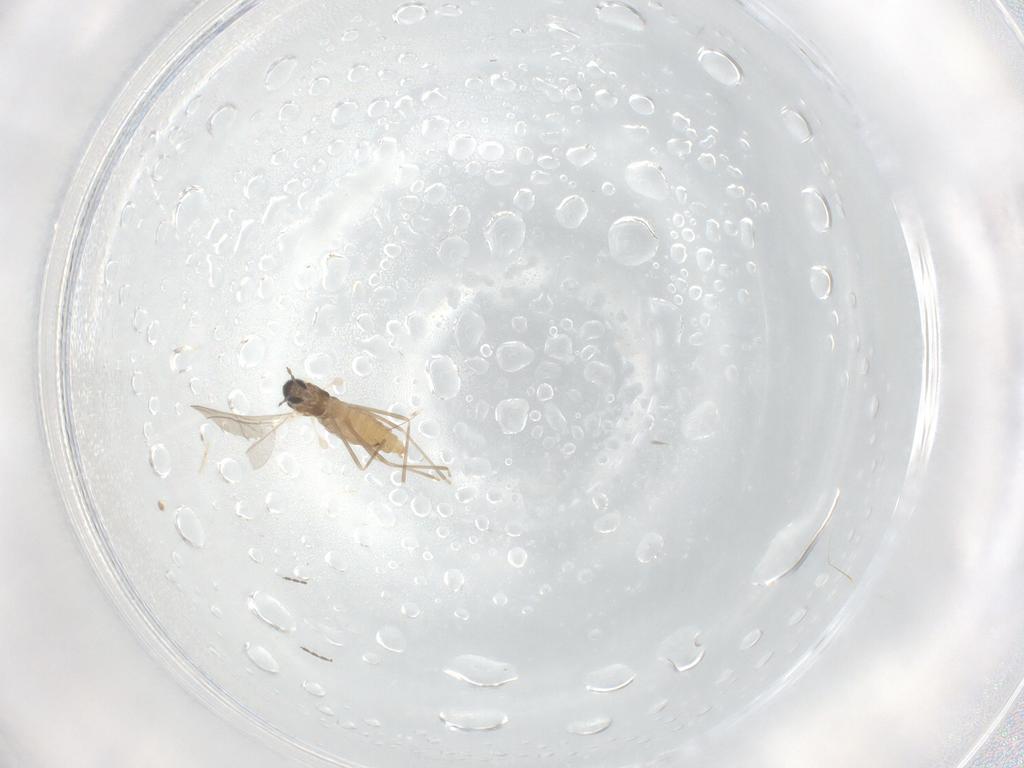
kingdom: Animalia
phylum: Arthropoda
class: Insecta
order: Diptera
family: Cecidomyiidae
